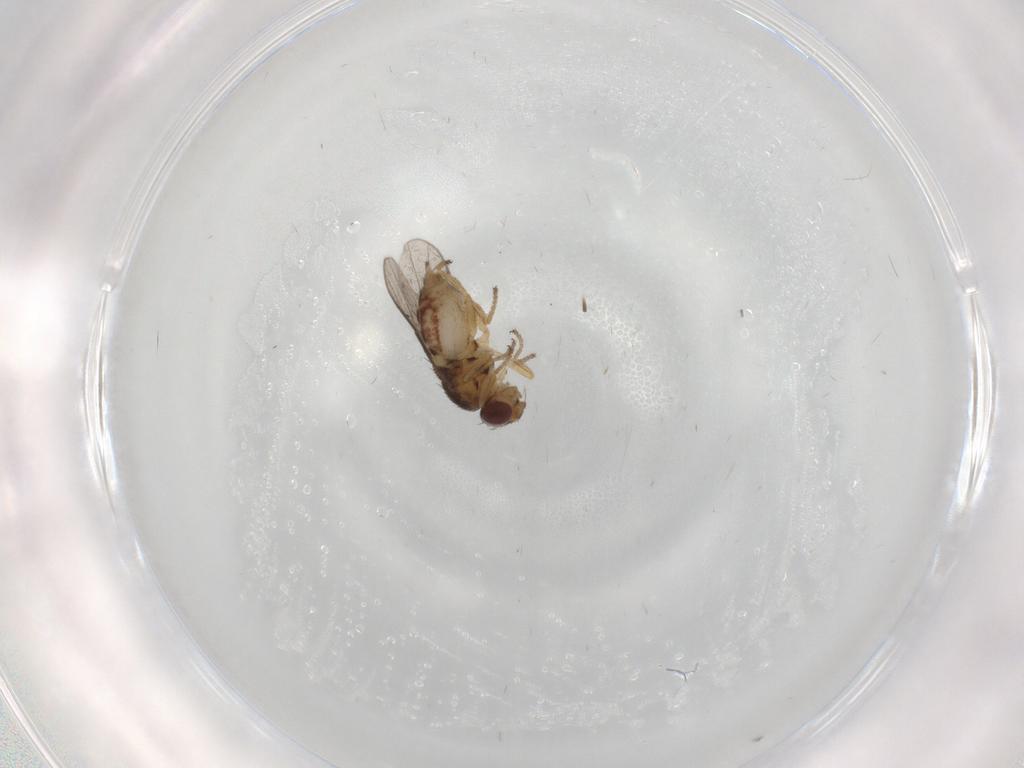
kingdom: Animalia
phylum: Arthropoda
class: Insecta
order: Diptera
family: Chloropidae
